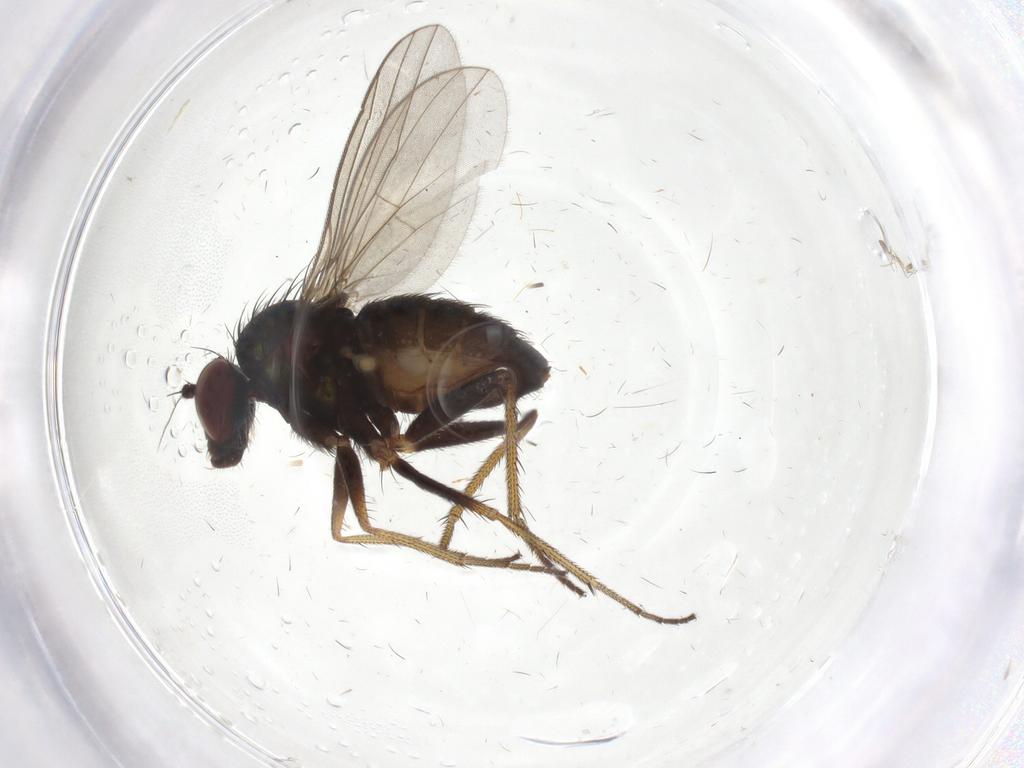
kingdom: Animalia
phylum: Arthropoda
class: Insecta
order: Diptera
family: Dolichopodidae
